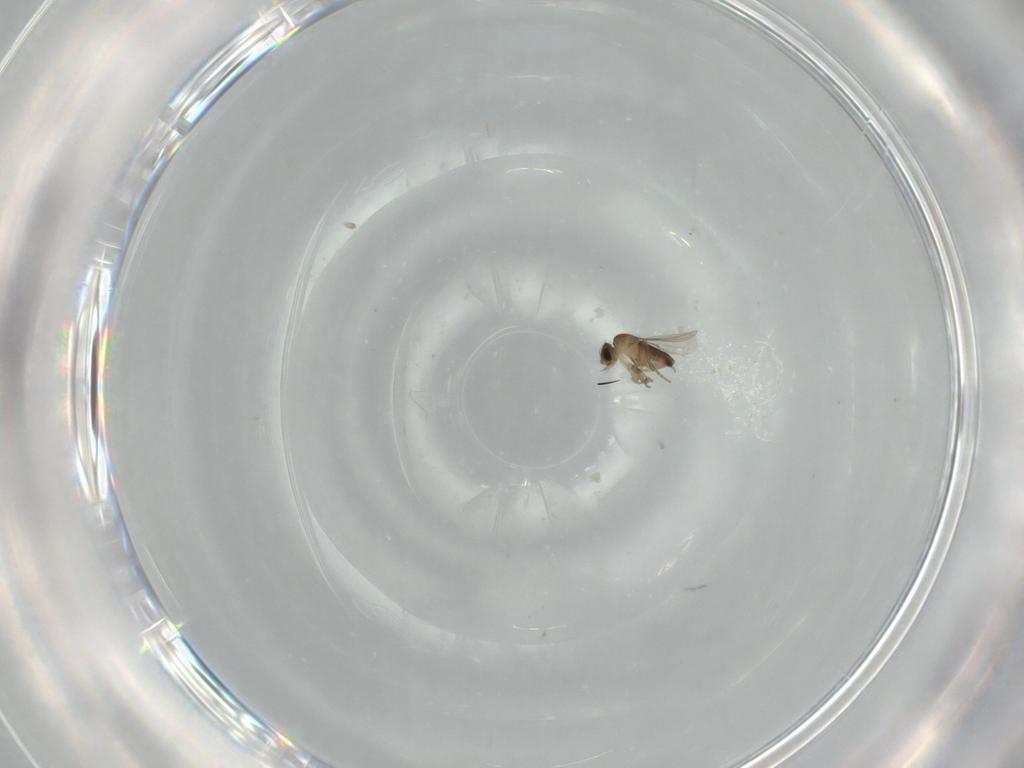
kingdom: Animalia
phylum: Arthropoda
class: Insecta
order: Diptera
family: Phoridae
